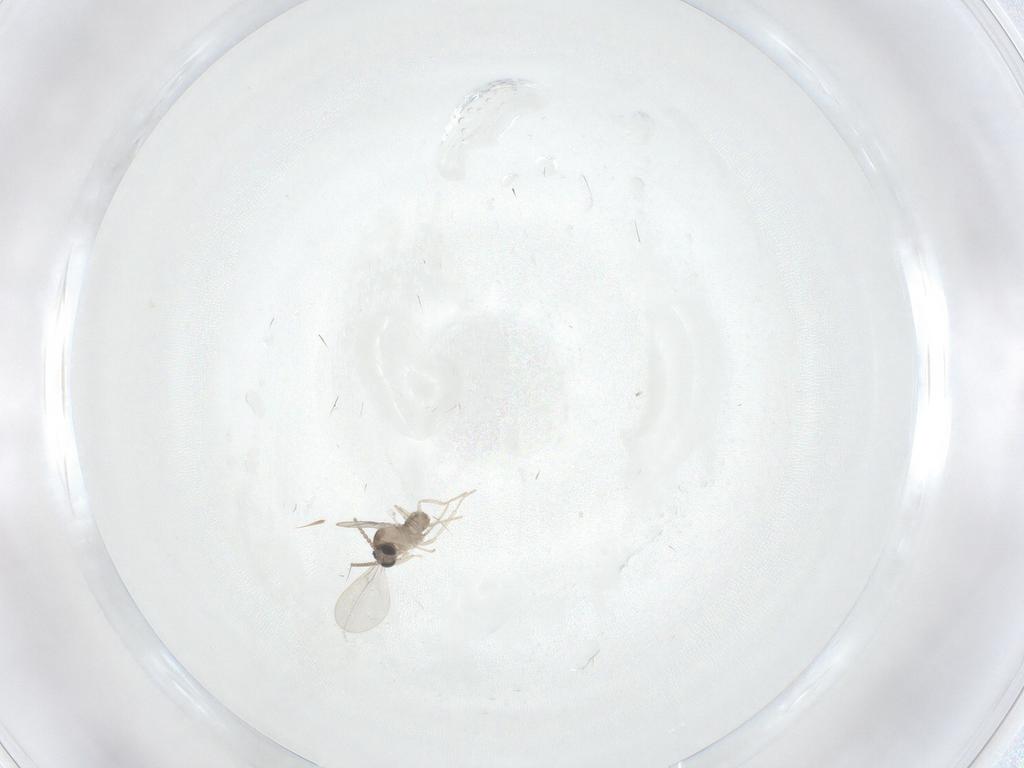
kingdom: Animalia
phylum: Arthropoda
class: Insecta
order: Diptera
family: Cecidomyiidae
